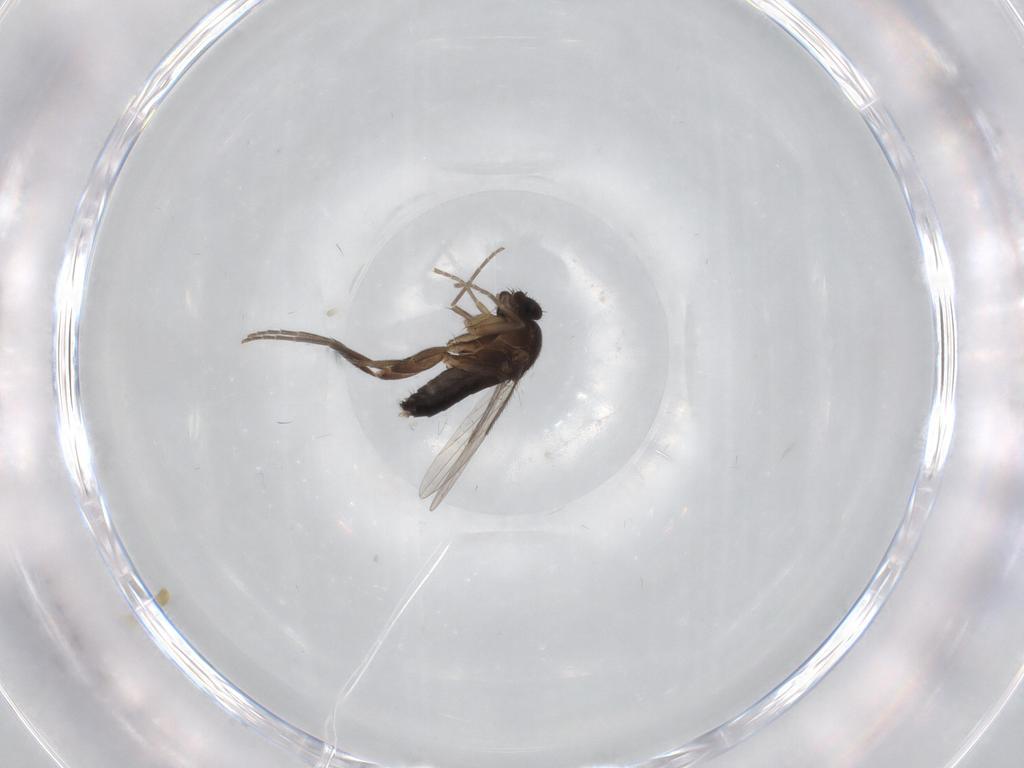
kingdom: Animalia
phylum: Arthropoda
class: Insecta
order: Diptera
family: Phoridae
